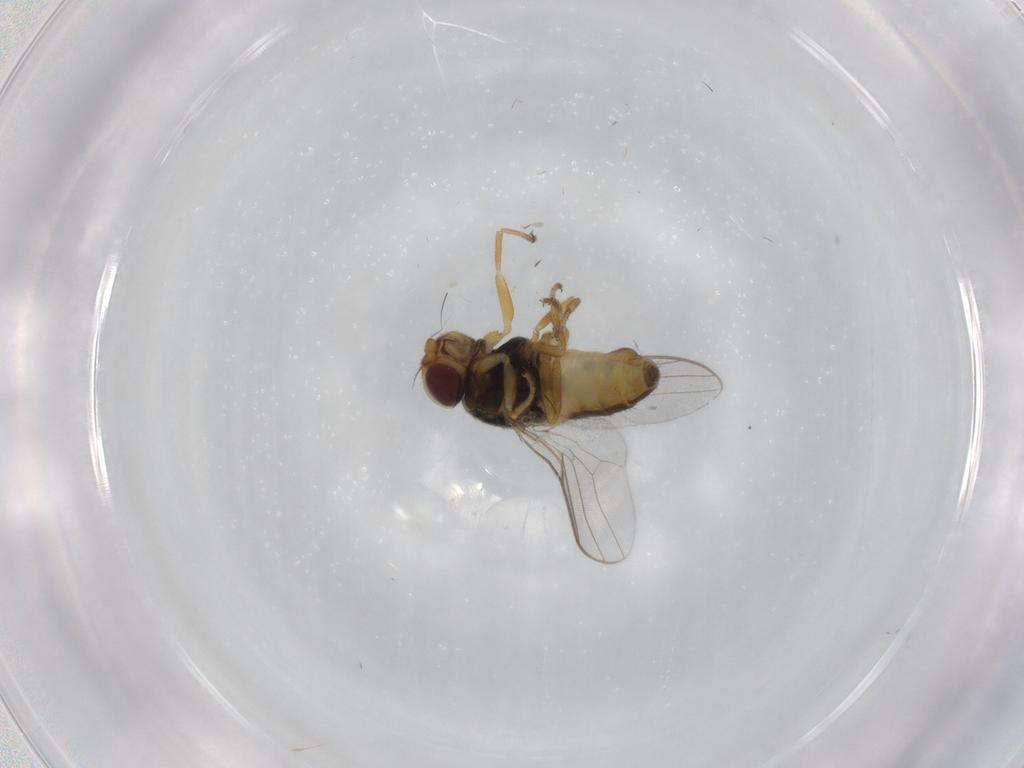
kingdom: Animalia
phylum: Arthropoda
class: Insecta
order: Diptera
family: Chloropidae
